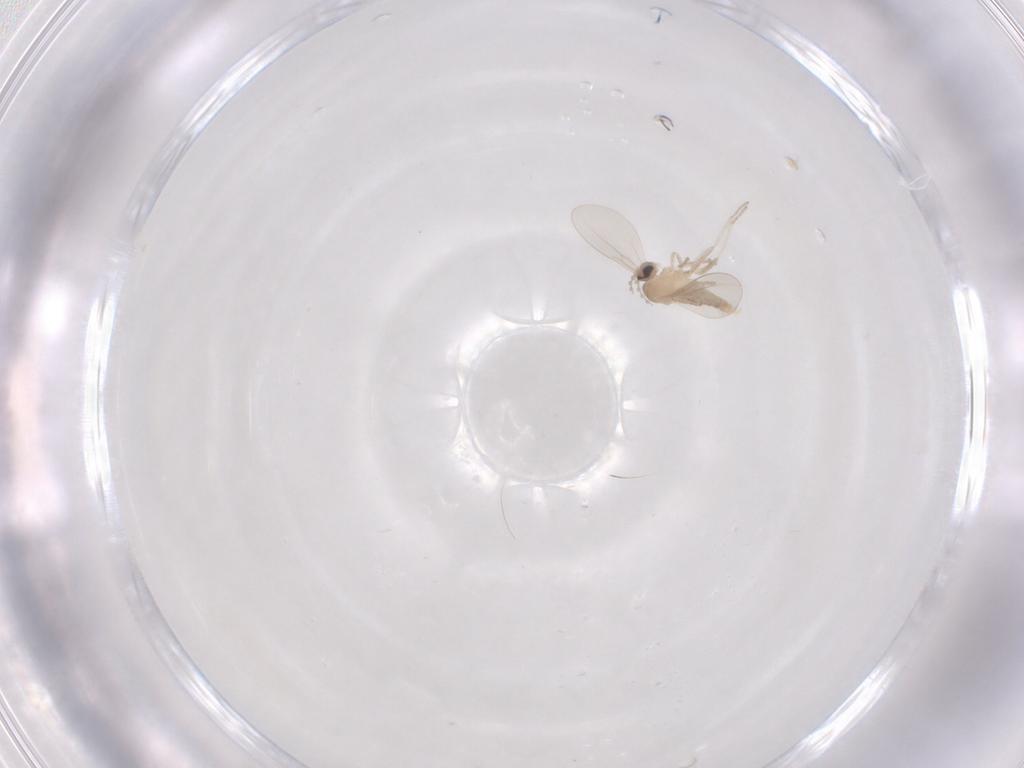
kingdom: Animalia
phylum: Arthropoda
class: Insecta
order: Diptera
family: Cecidomyiidae
